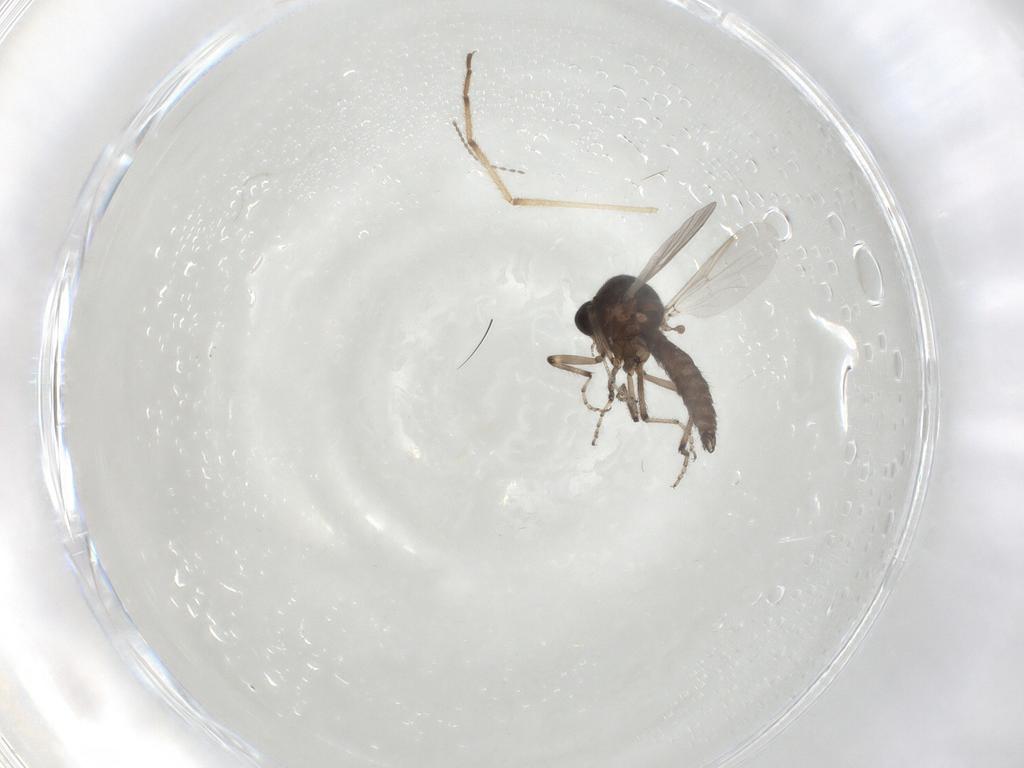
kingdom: Animalia
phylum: Arthropoda
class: Insecta
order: Diptera
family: Ceratopogonidae
